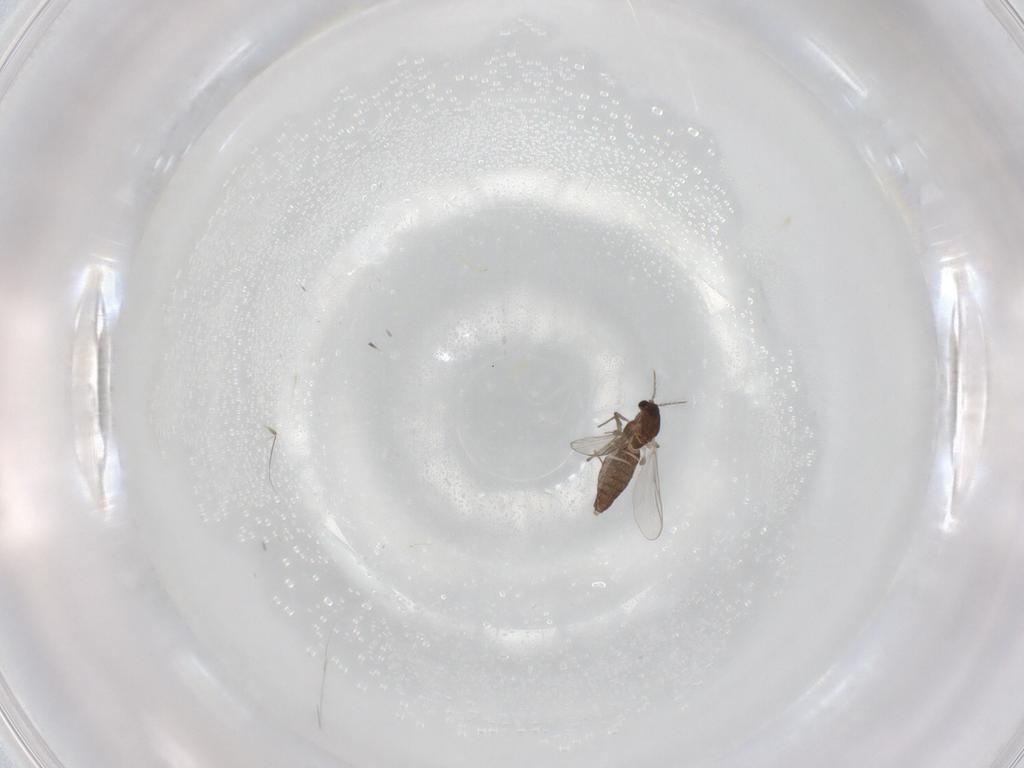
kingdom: Animalia
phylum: Arthropoda
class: Insecta
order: Diptera
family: Chironomidae
